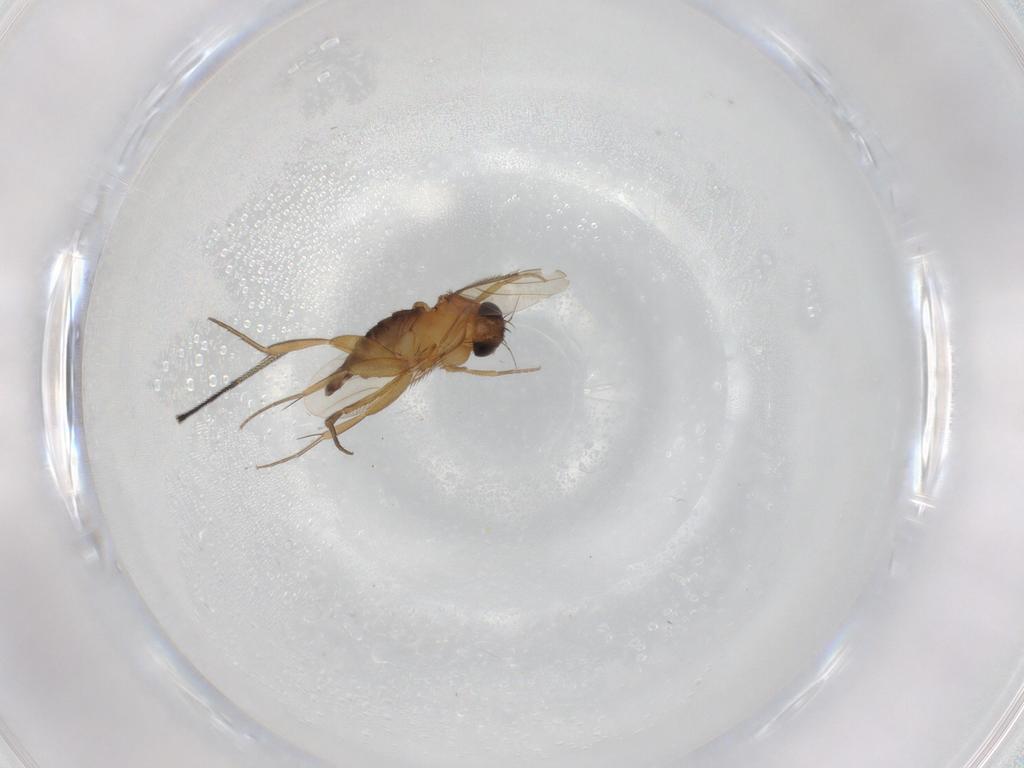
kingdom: Animalia
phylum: Arthropoda
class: Insecta
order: Diptera
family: Phoridae
